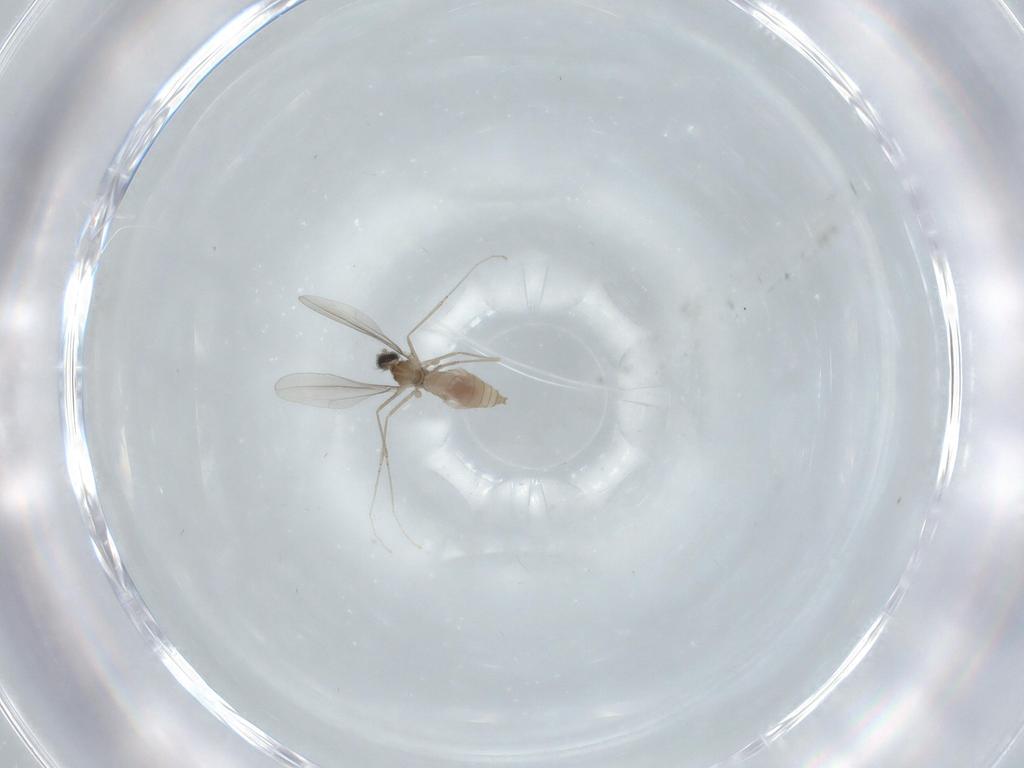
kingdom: Animalia
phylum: Arthropoda
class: Insecta
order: Diptera
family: Cecidomyiidae
